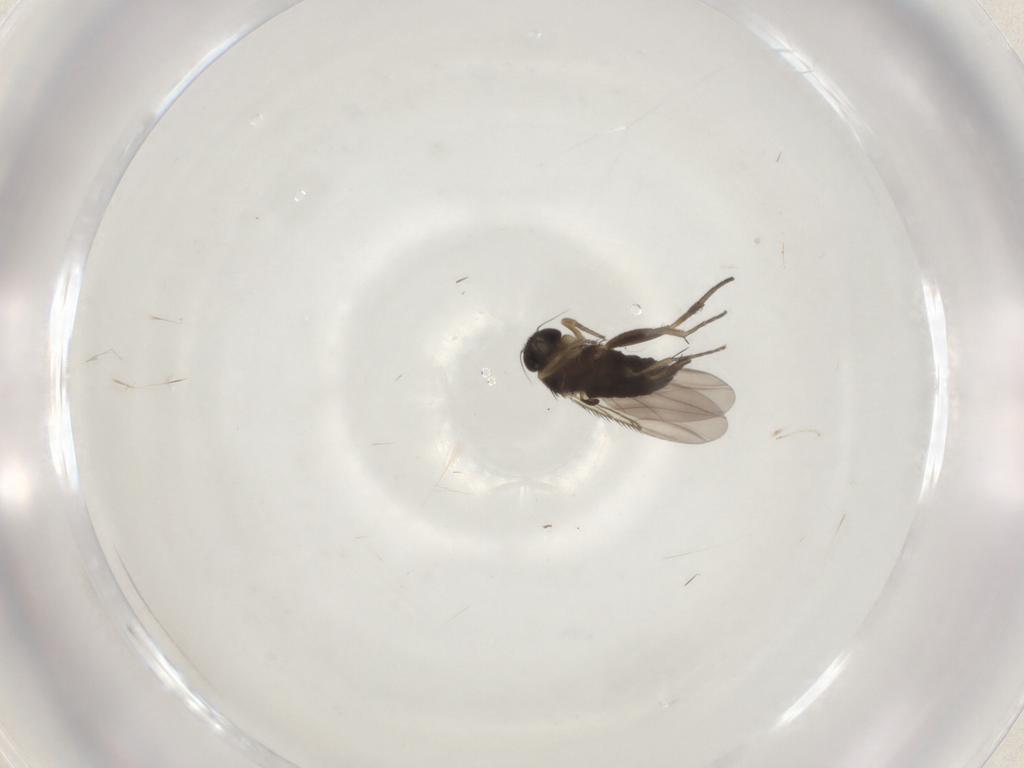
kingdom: Animalia
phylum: Arthropoda
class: Insecta
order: Diptera
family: Phoridae
